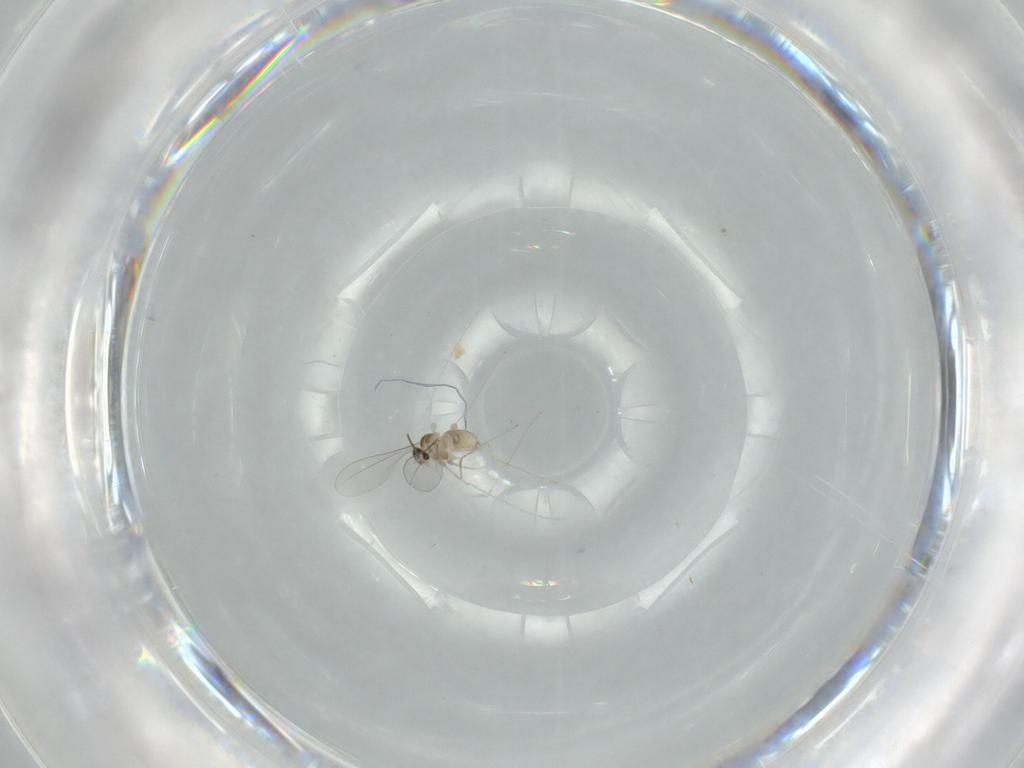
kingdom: Animalia
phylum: Arthropoda
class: Insecta
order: Diptera
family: Cecidomyiidae
